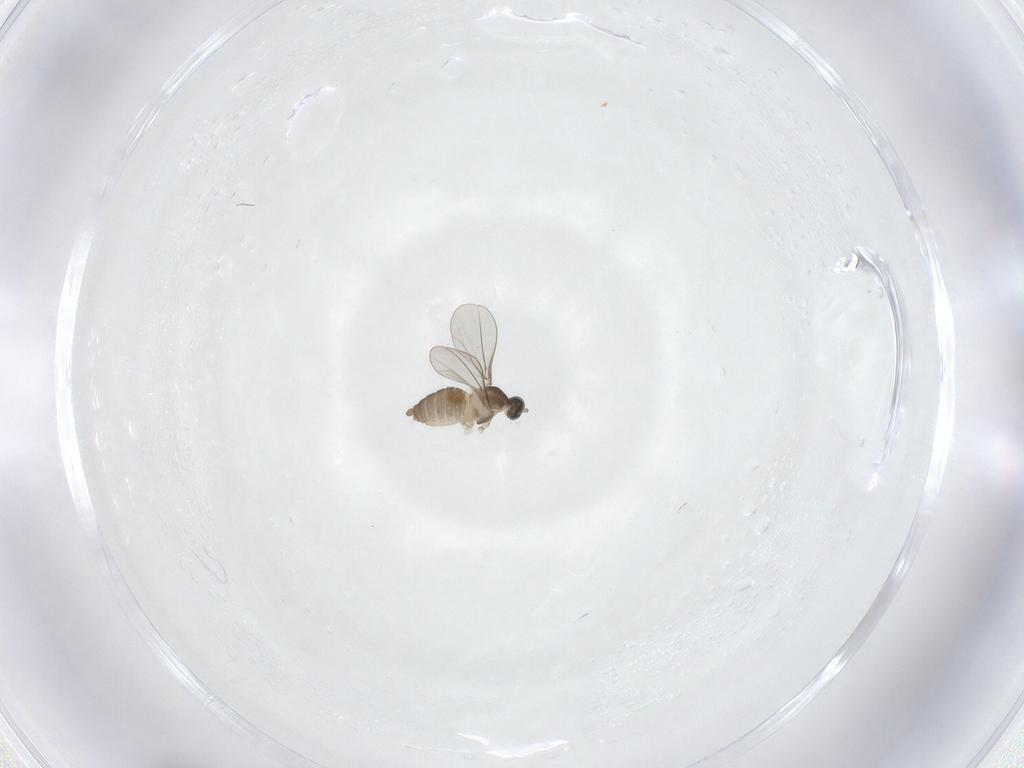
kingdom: Animalia
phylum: Arthropoda
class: Insecta
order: Diptera
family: Cecidomyiidae
